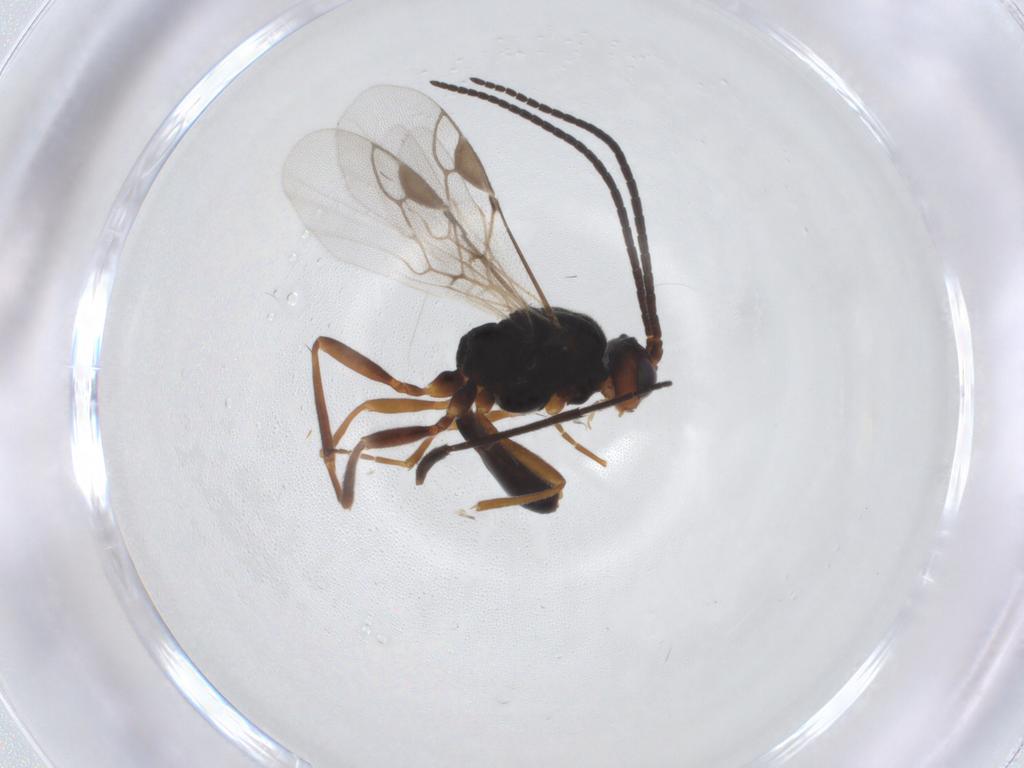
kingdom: Animalia
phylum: Arthropoda
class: Insecta
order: Hymenoptera
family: Braconidae
